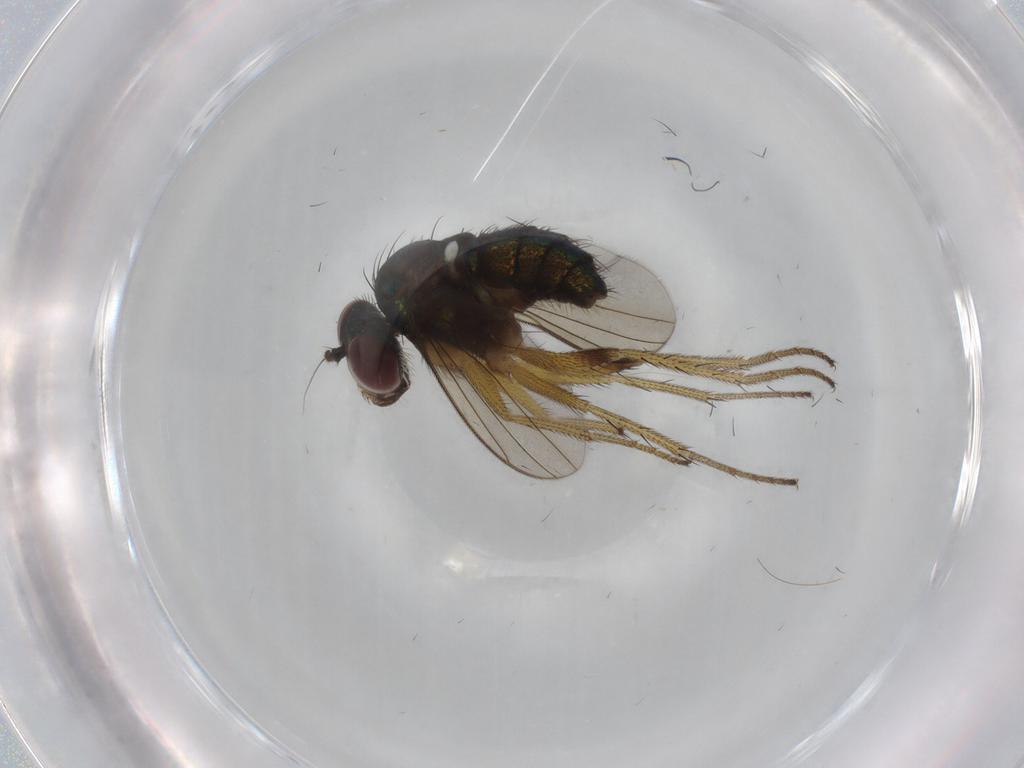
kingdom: Animalia
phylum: Arthropoda
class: Insecta
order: Diptera
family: Dolichopodidae
